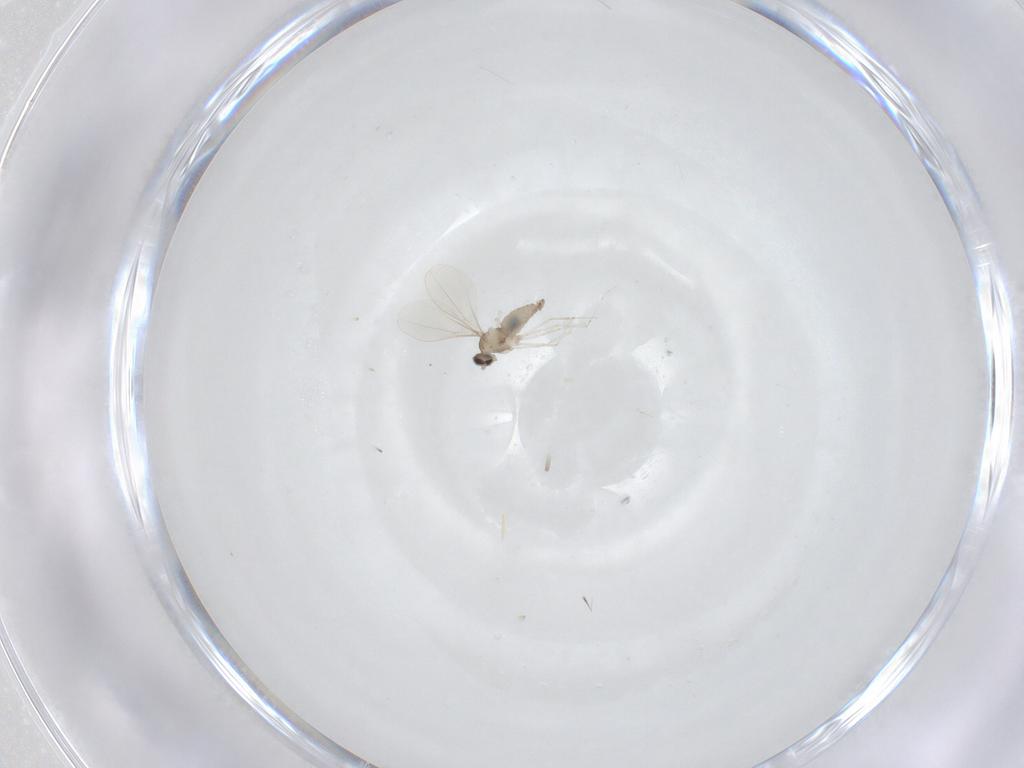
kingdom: Animalia
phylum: Arthropoda
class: Insecta
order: Diptera
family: Cecidomyiidae
